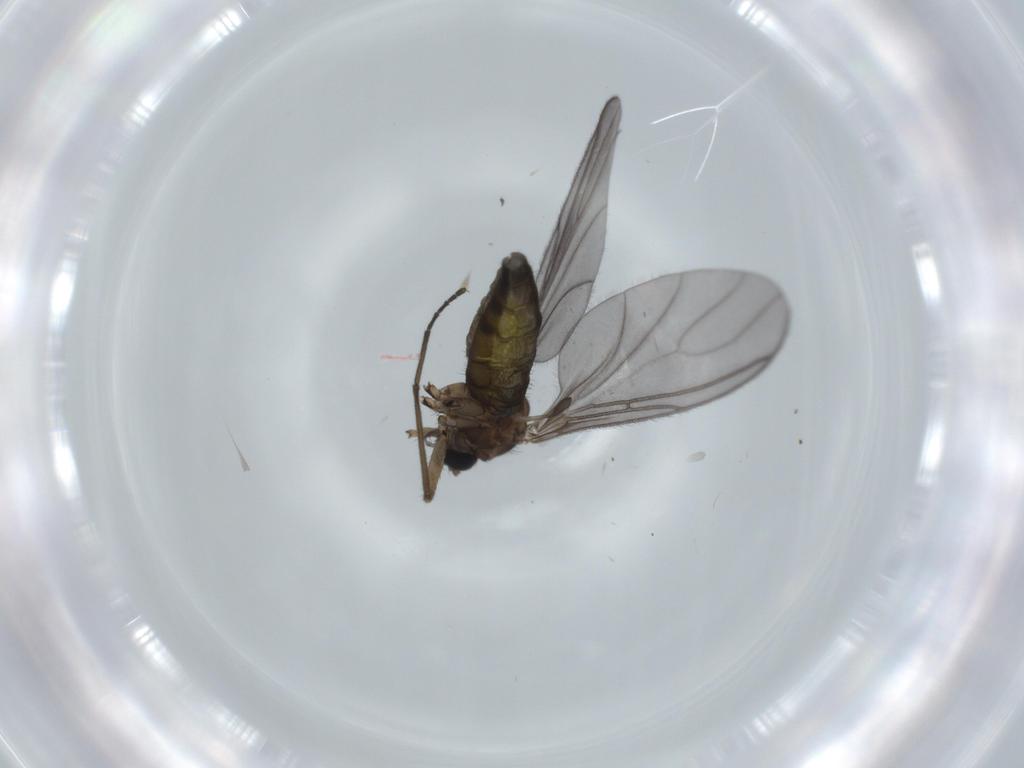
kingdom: Animalia
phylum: Arthropoda
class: Insecta
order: Diptera
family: Sciaridae
